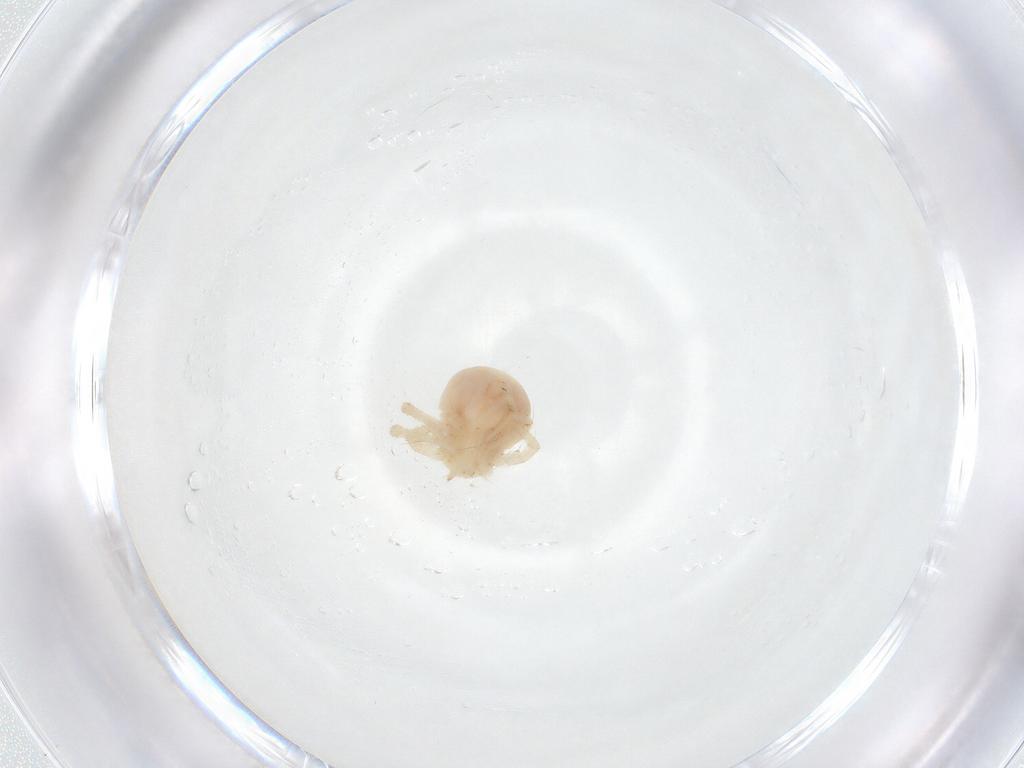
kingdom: Animalia
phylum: Arthropoda
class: Arachnida
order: Trombidiformes
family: Anystidae
